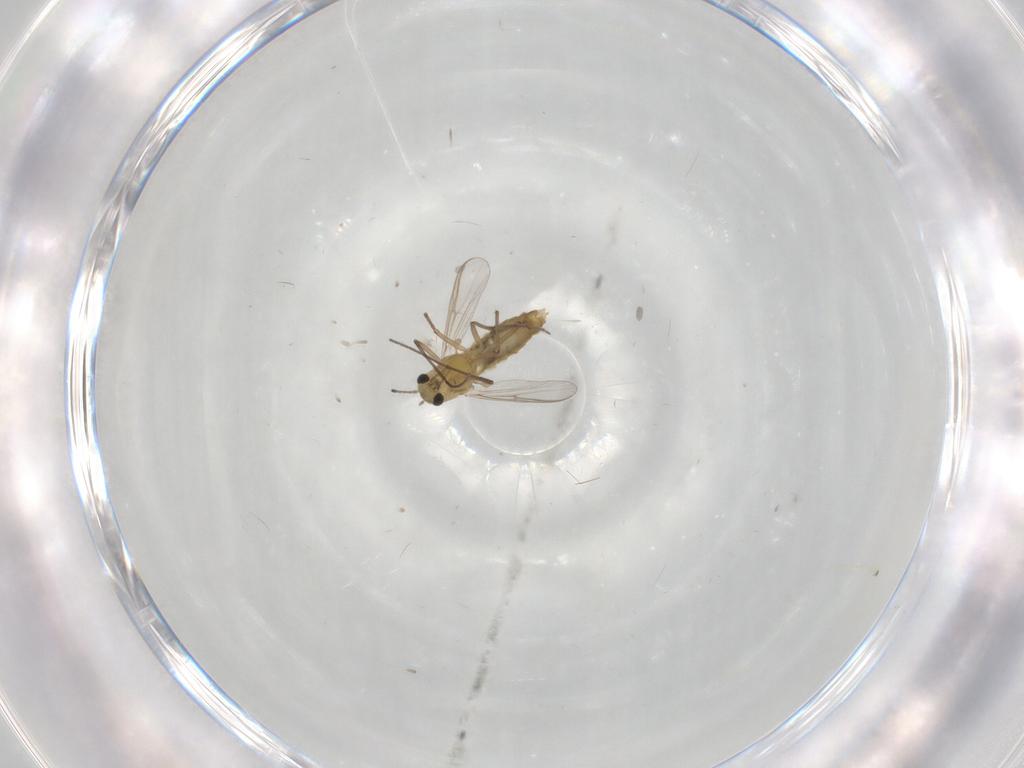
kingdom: Animalia
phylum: Arthropoda
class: Insecta
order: Diptera
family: Chironomidae
